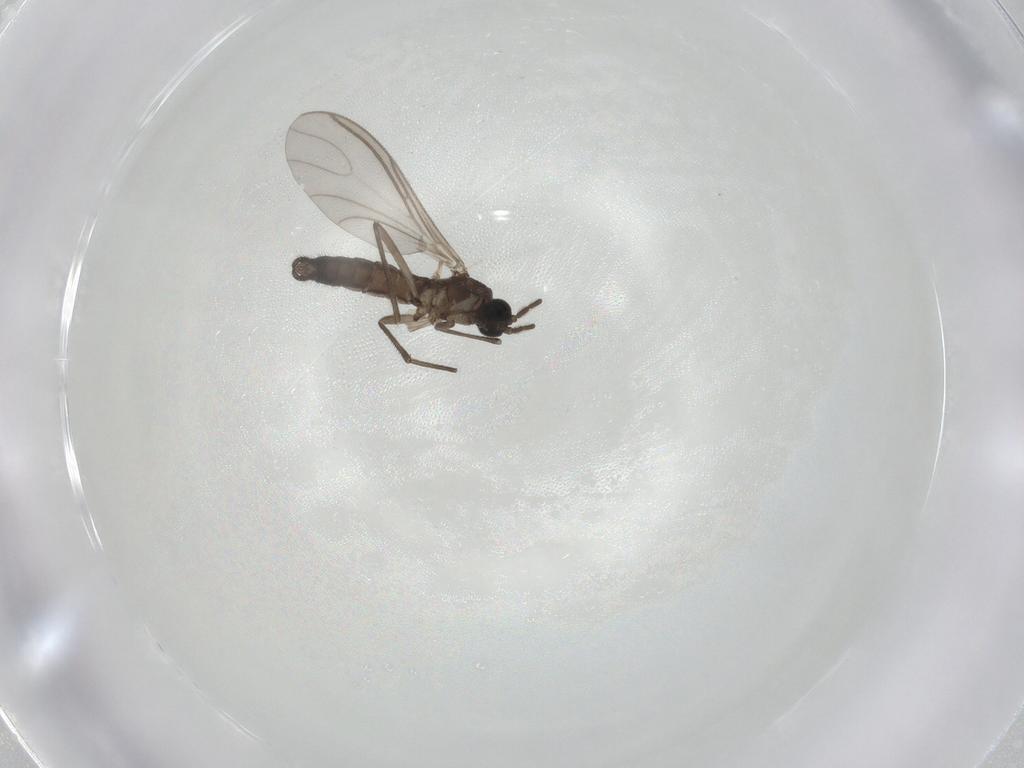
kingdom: Animalia
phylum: Arthropoda
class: Insecta
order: Diptera
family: Sciaridae
